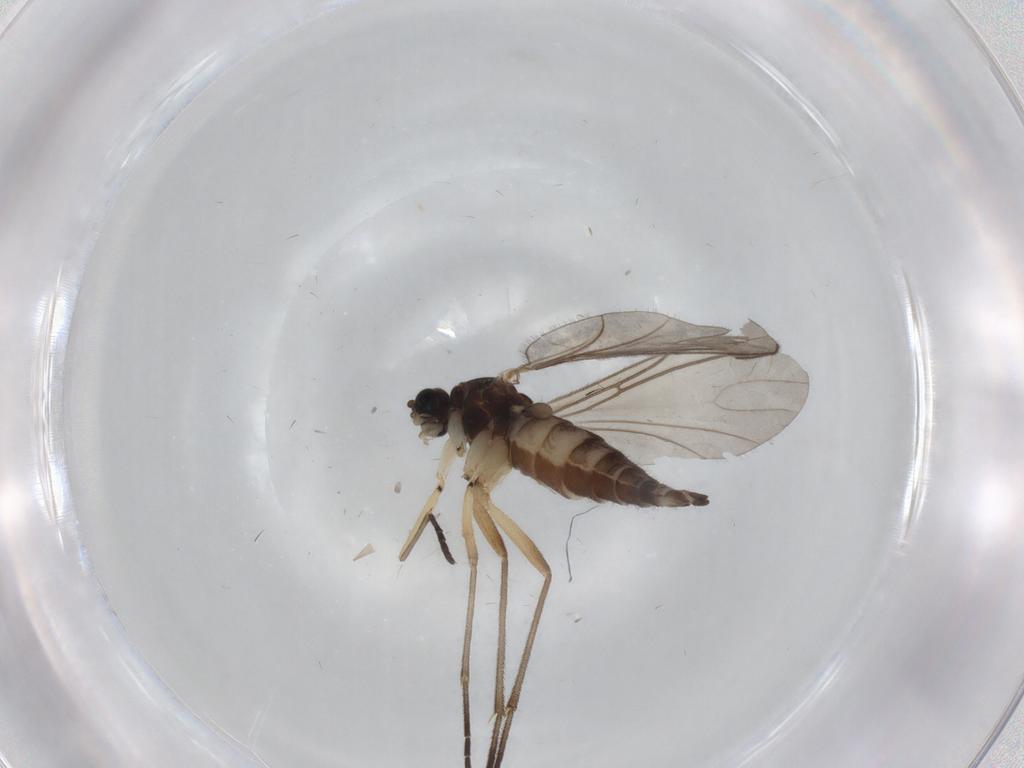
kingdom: Animalia
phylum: Arthropoda
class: Insecta
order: Diptera
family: Sciaridae
